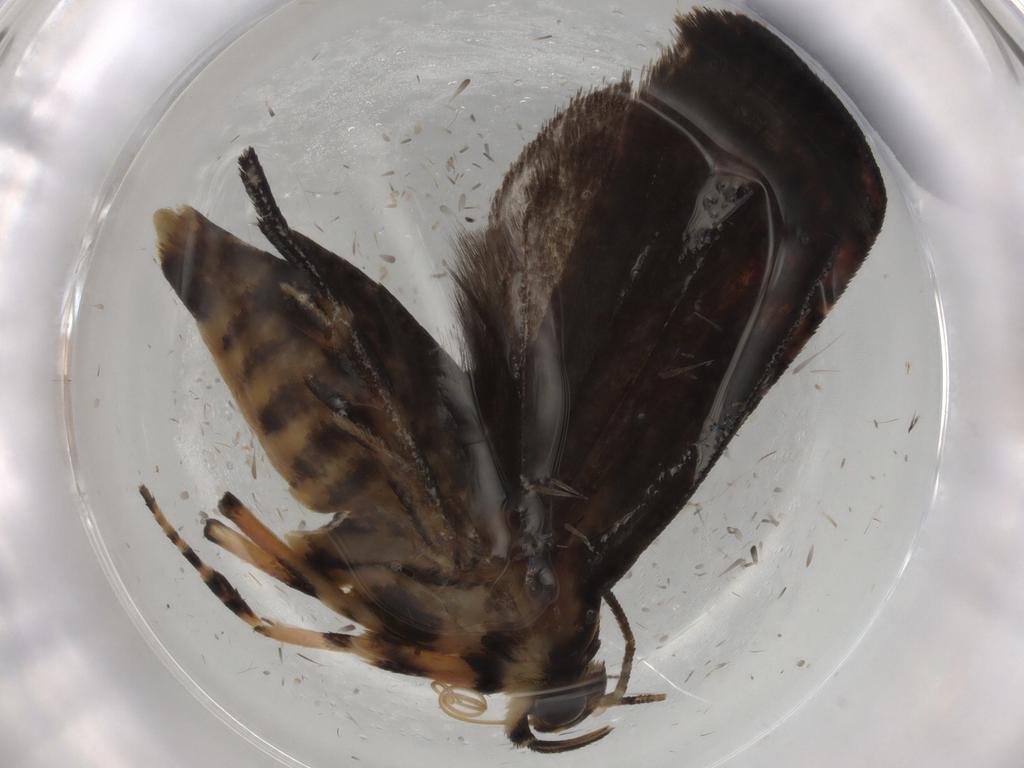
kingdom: Animalia
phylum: Arthropoda
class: Insecta
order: Lepidoptera
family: Glyphipterigidae
